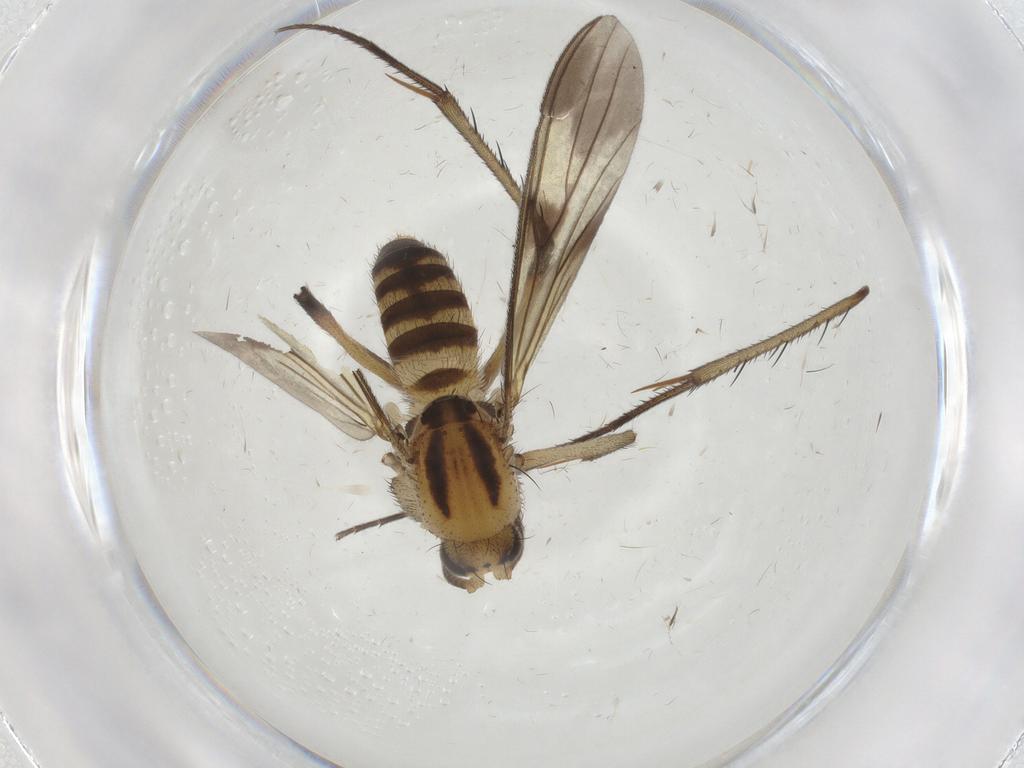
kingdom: Animalia
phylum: Arthropoda
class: Insecta
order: Diptera
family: Mycetophilidae
